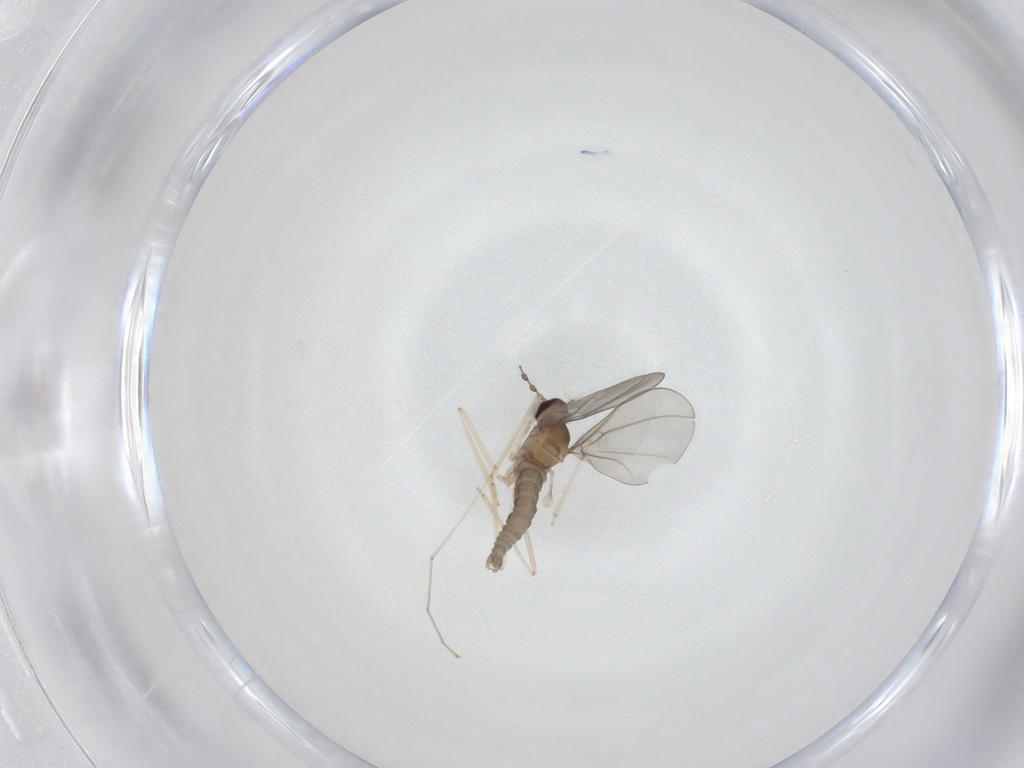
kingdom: Animalia
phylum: Arthropoda
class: Insecta
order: Diptera
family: Cecidomyiidae
